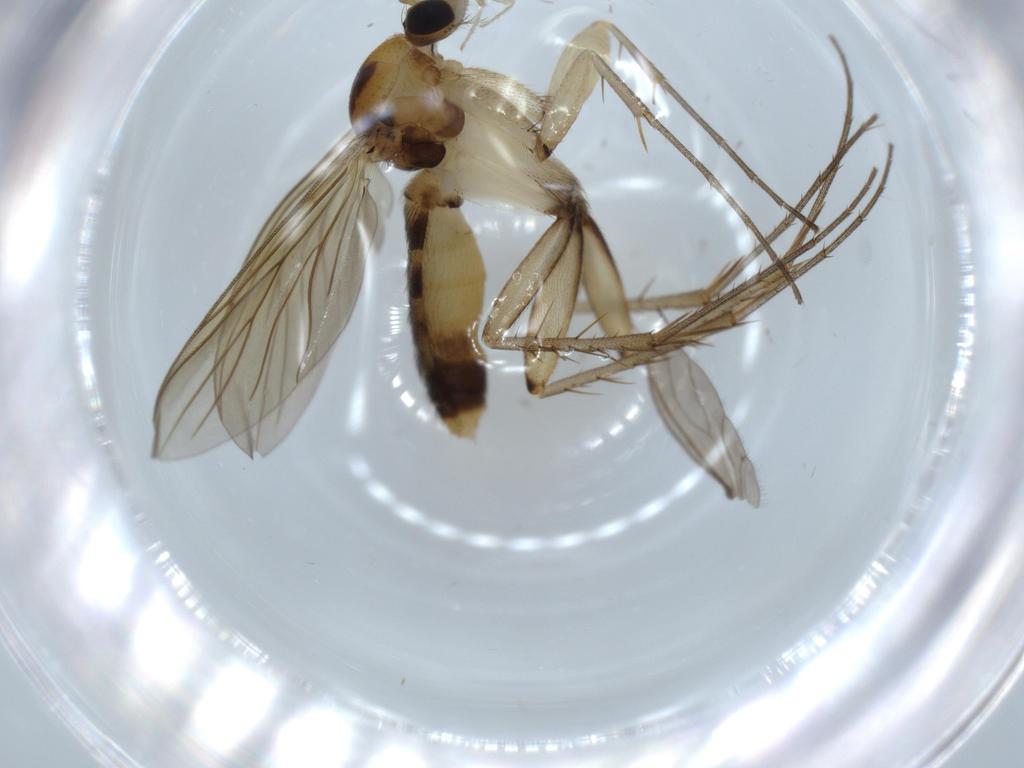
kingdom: Animalia
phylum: Arthropoda
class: Insecta
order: Diptera
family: Mycetophilidae
